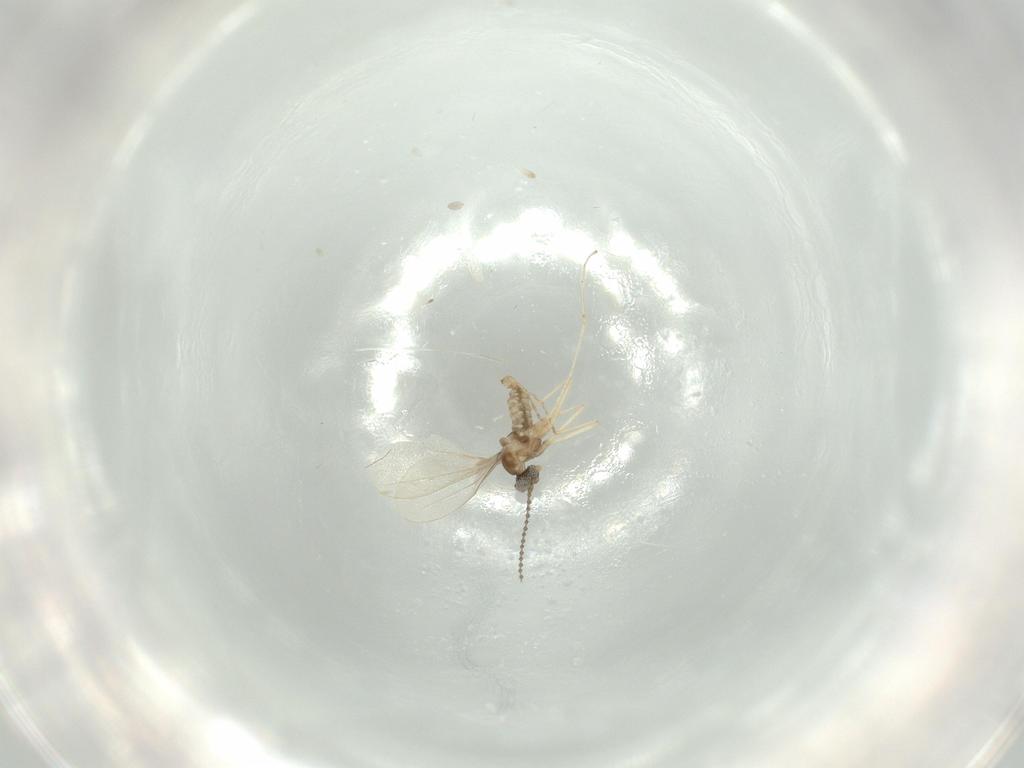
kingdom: Animalia
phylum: Arthropoda
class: Insecta
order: Diptera
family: Cecidomyiidae
